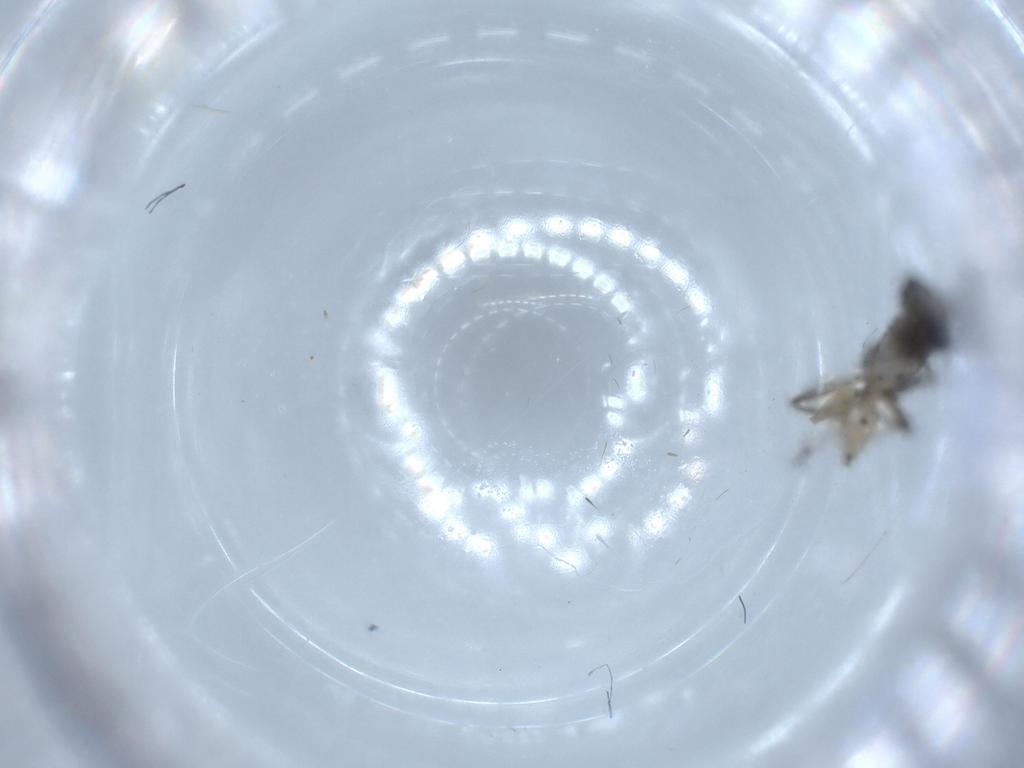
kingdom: Animalia
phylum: Arthropoda
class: Insecta
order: Diptera
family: Hybotidae
